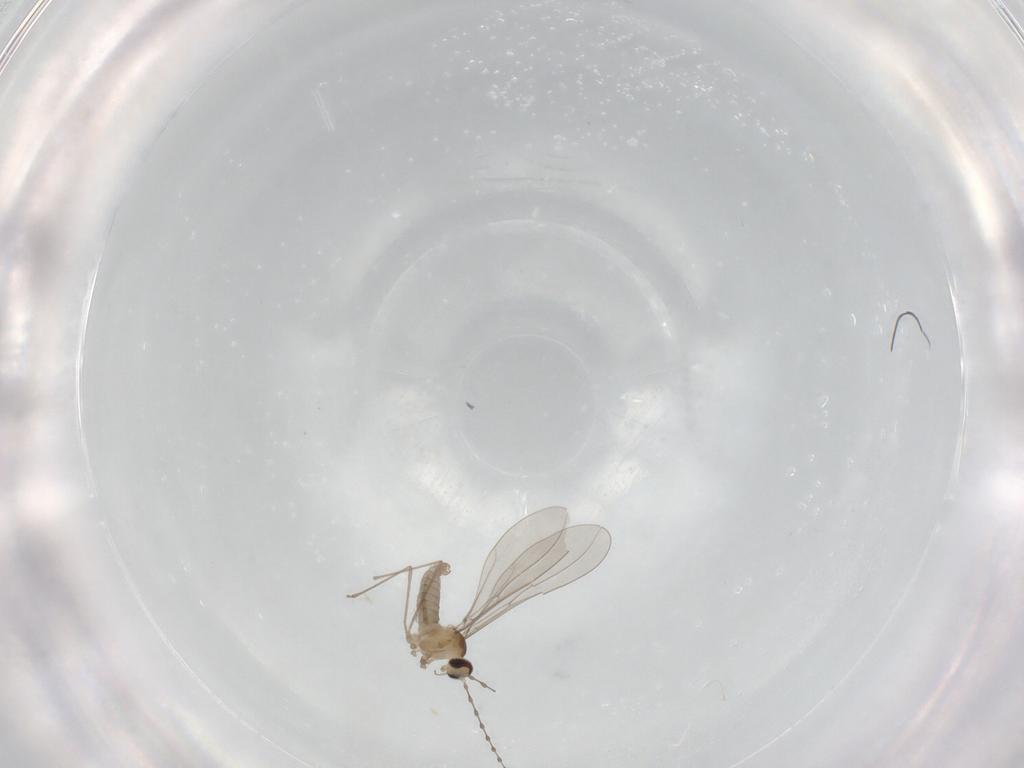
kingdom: Animalia
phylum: Arthropoda
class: Insecta
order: Diptera
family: Cecidomyiidae
